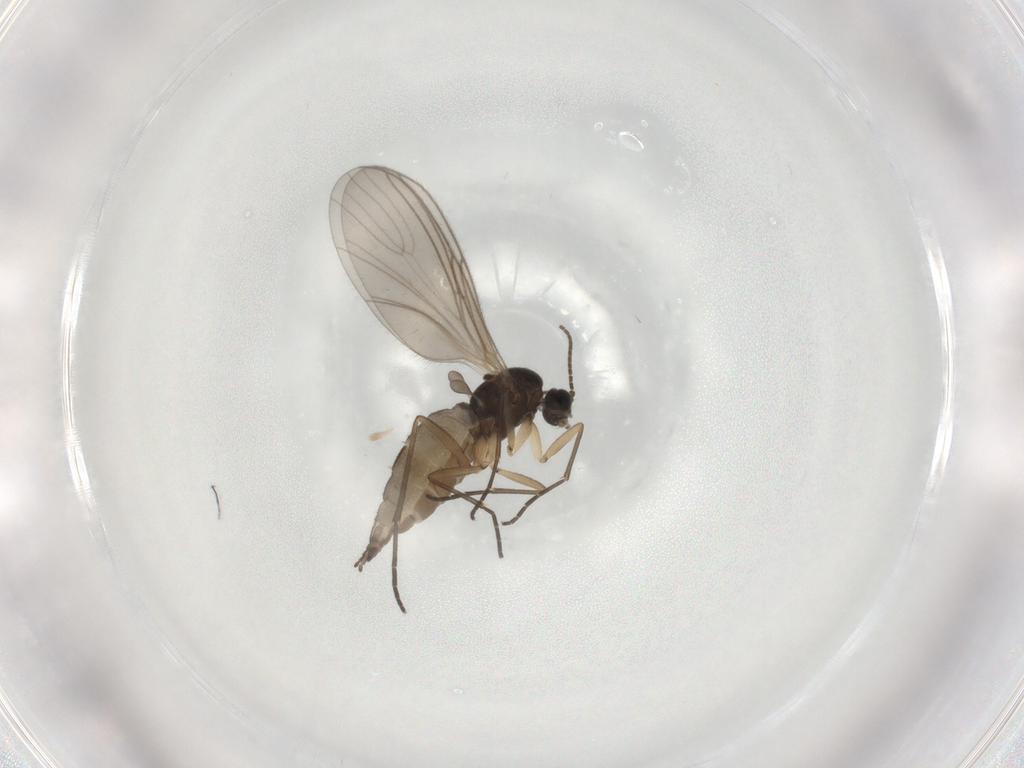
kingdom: Animalia
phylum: Arthropoda
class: Insecta
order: Diptera
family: Sciaridae
